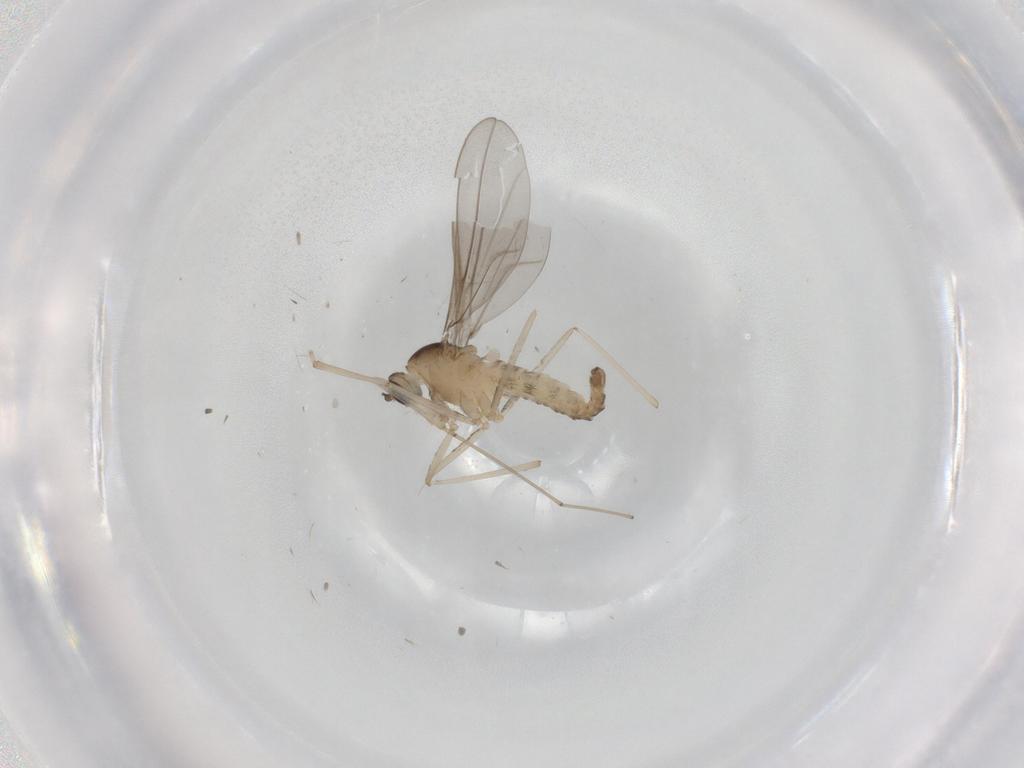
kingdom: Animalia
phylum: Arthropoda
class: Insecta
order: Diptera
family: Cecidomyiidae
